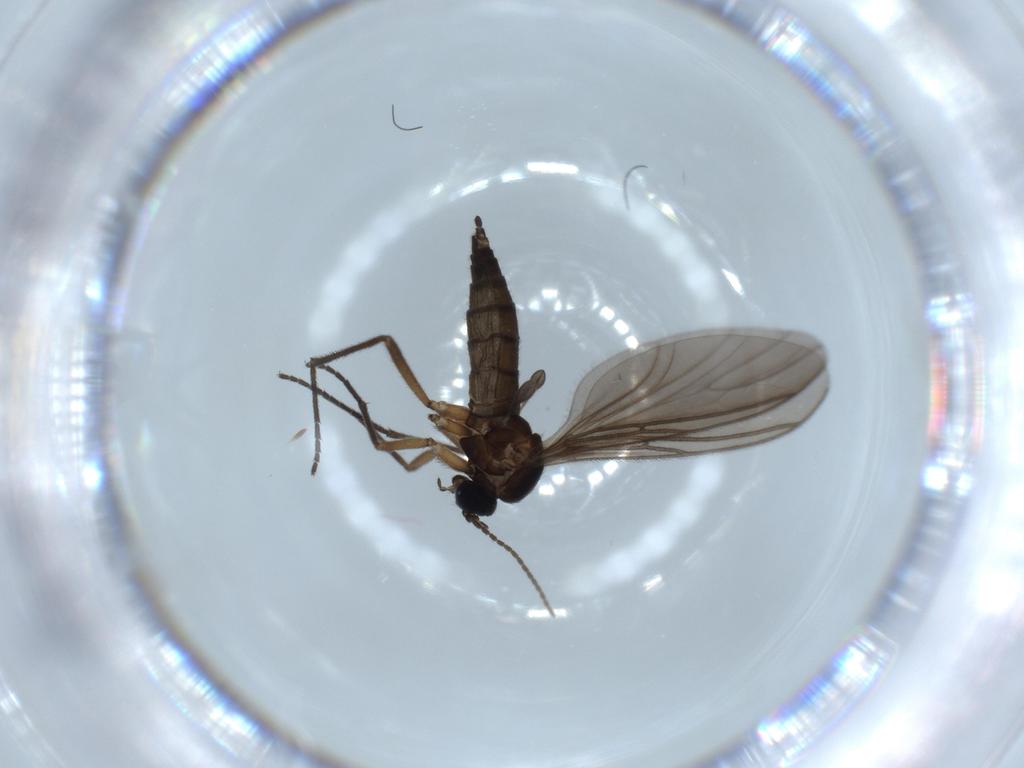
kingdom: Animalia
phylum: Arthropoda
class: Insecta
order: Diptera
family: Sciaridae
